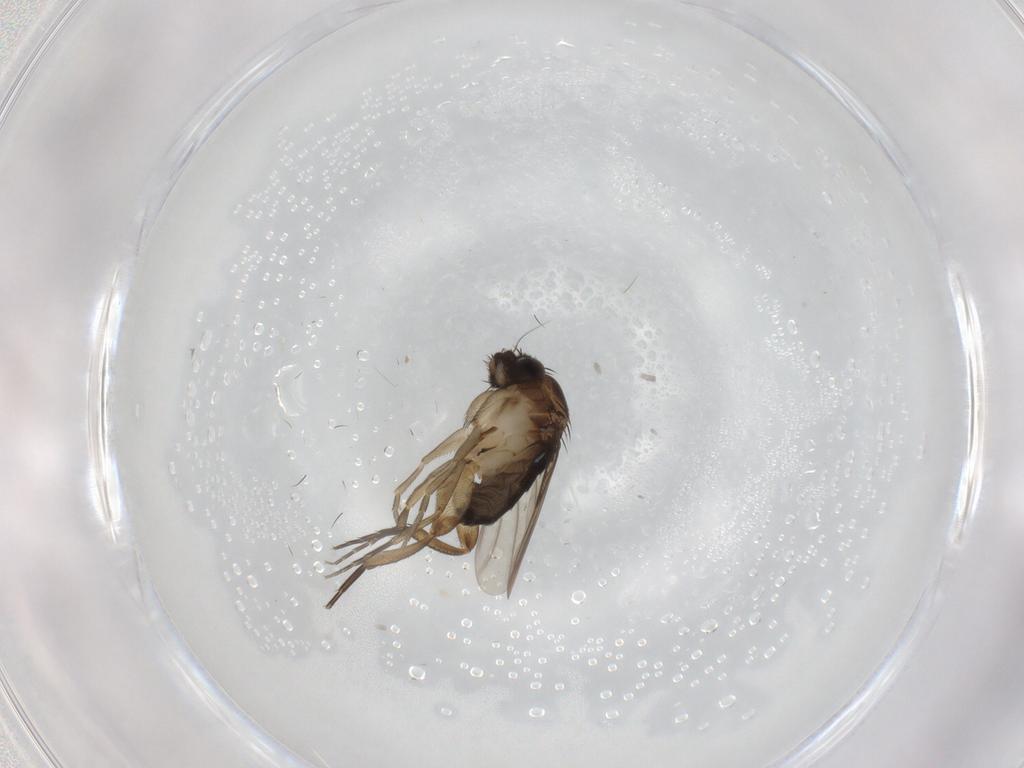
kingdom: Animalia
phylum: Arthropoda
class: Insecta
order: Diptera
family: Phoridae
